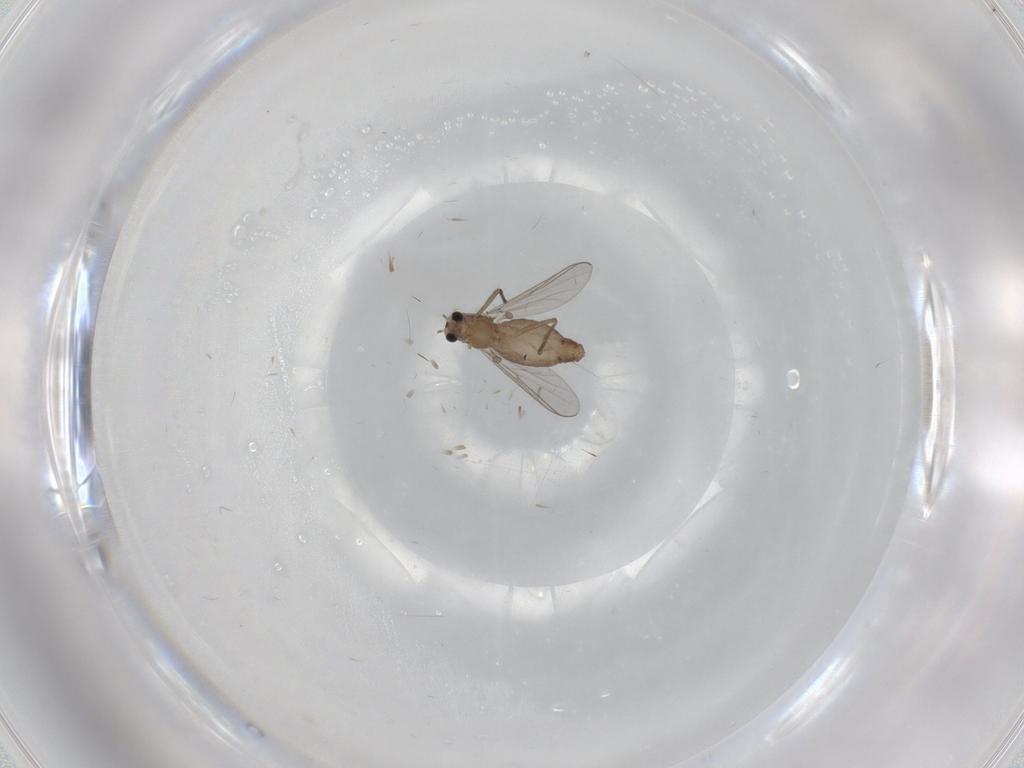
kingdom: Animalia
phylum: Arthropoda
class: Insecta
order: Diptera
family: Chironomidae
